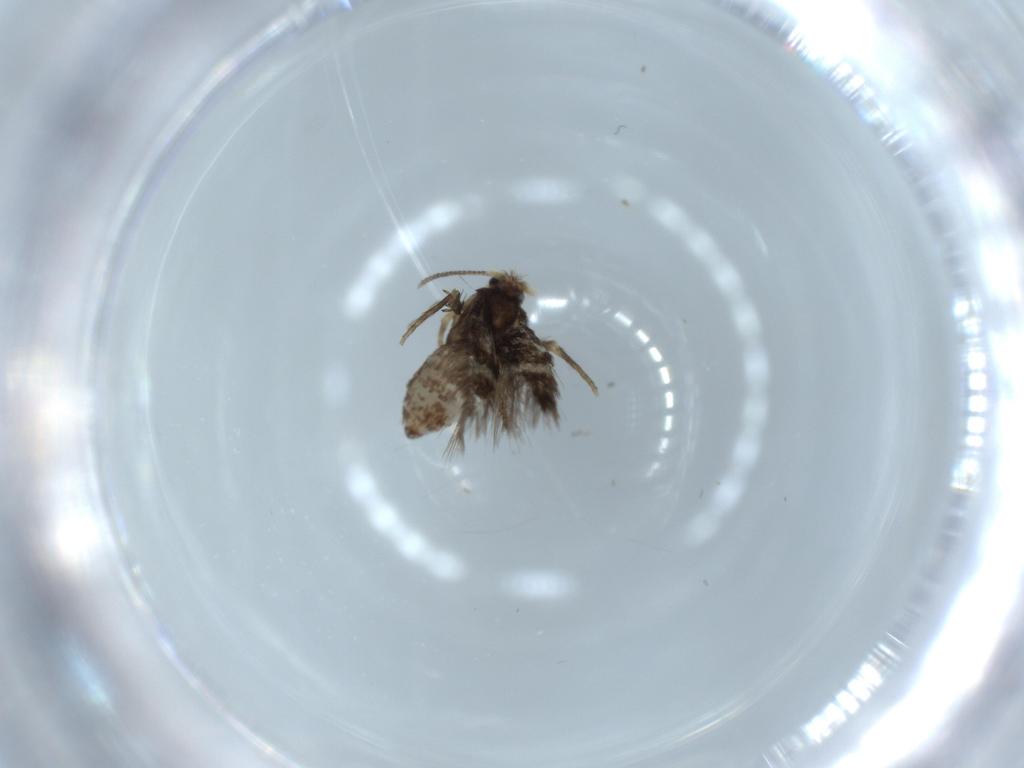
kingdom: Animalia
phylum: Arthropoda
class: Insecta
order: Lepidoptera
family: Nepticulidae
